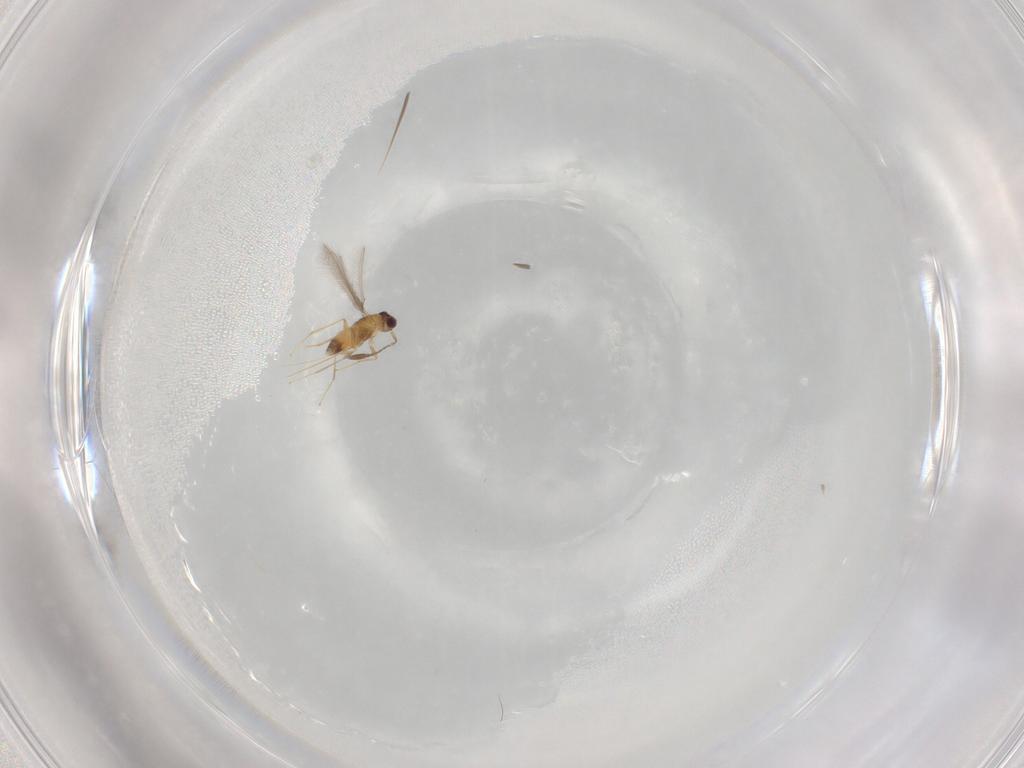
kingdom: Animalia
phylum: Arthropoda
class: Insecta
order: Hymenoptera
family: Mymaridae
